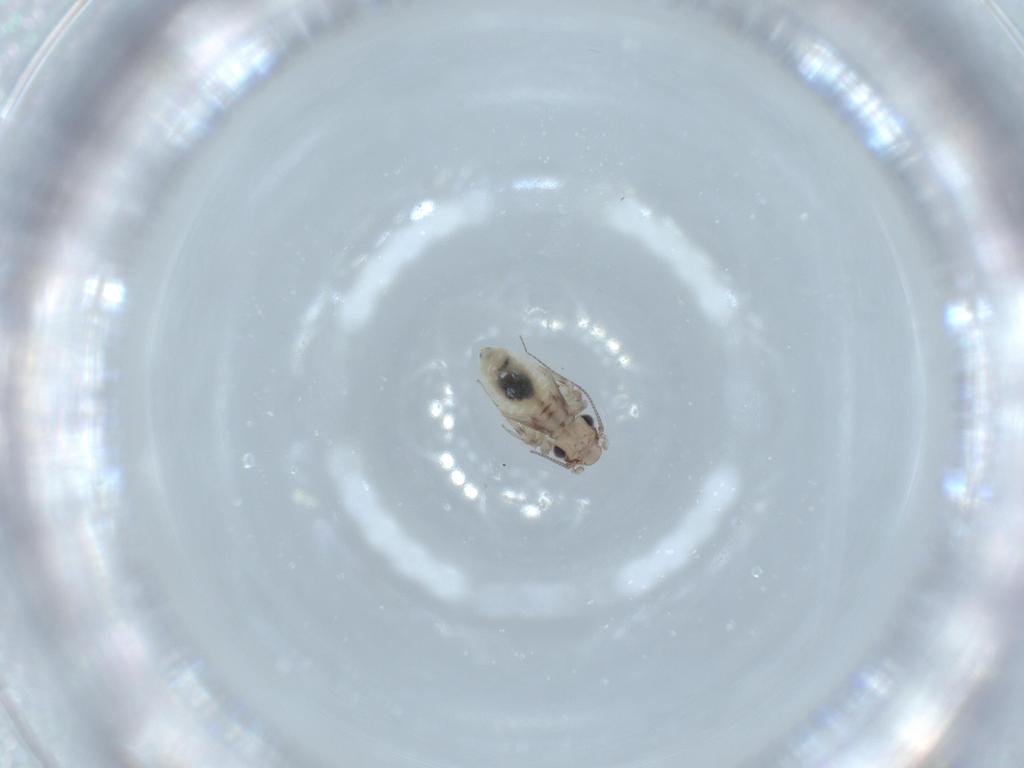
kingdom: Animalia
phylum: Arthropoda
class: Insecta
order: Psocodea
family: Lepidopsocidae
